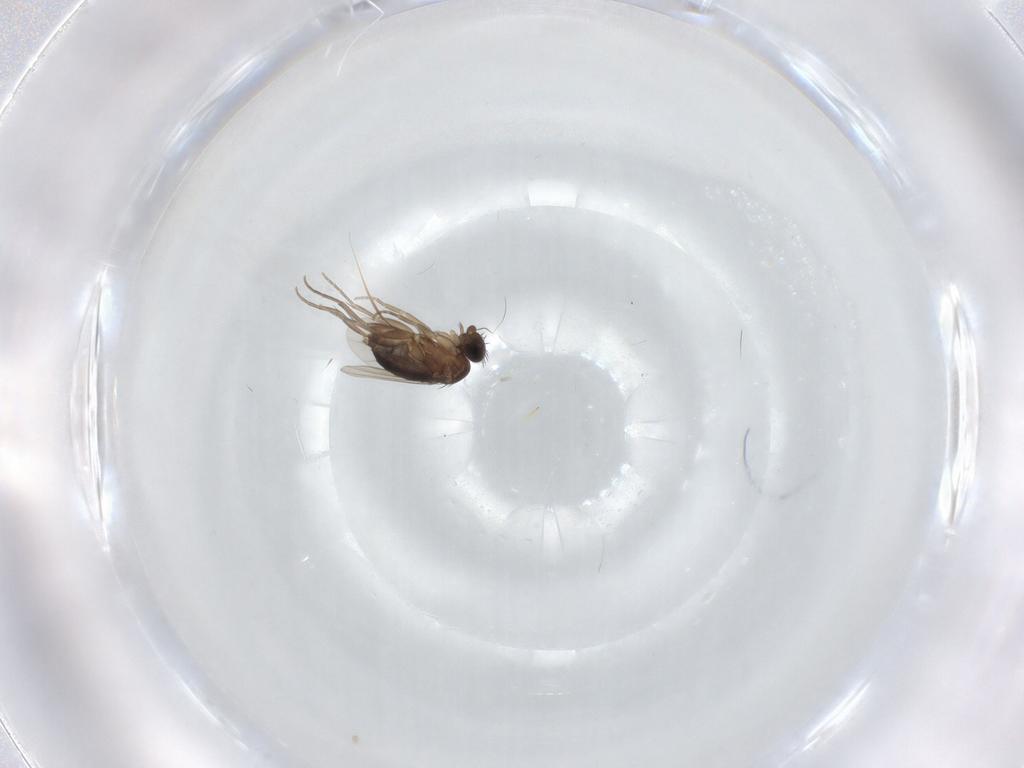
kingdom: Animalia
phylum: Arthropoda
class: Insecta
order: Diptera
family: Phoridae
